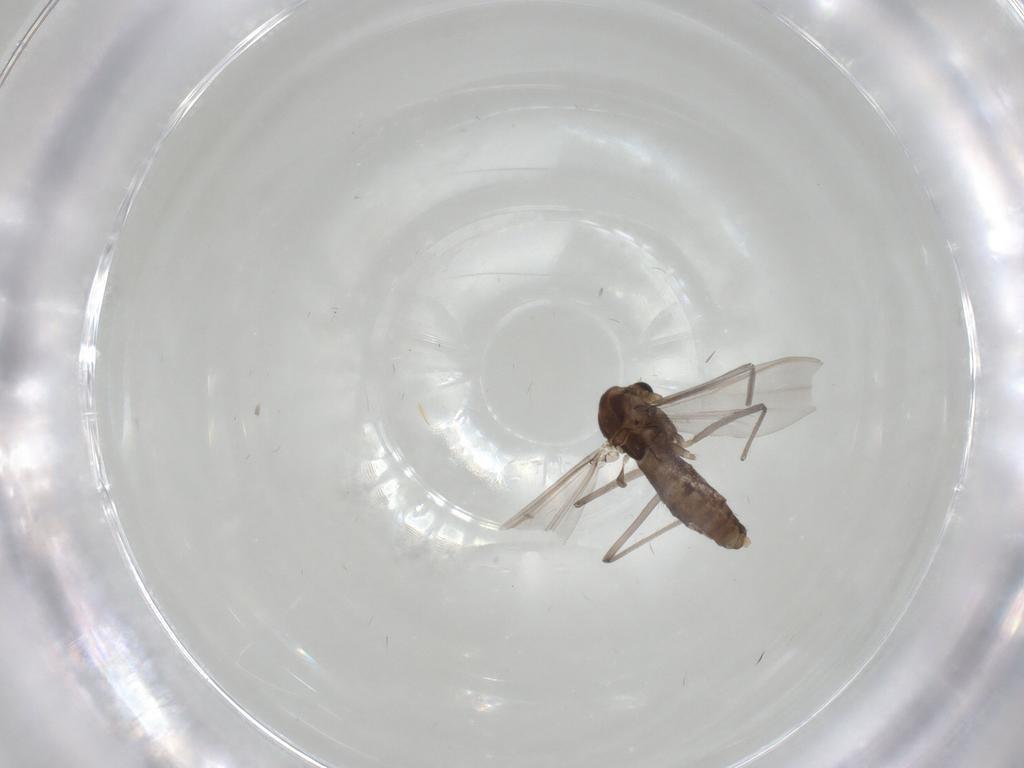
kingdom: Animalia
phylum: Arthropoda
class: Insecta
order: Diptera
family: Chironomidae
